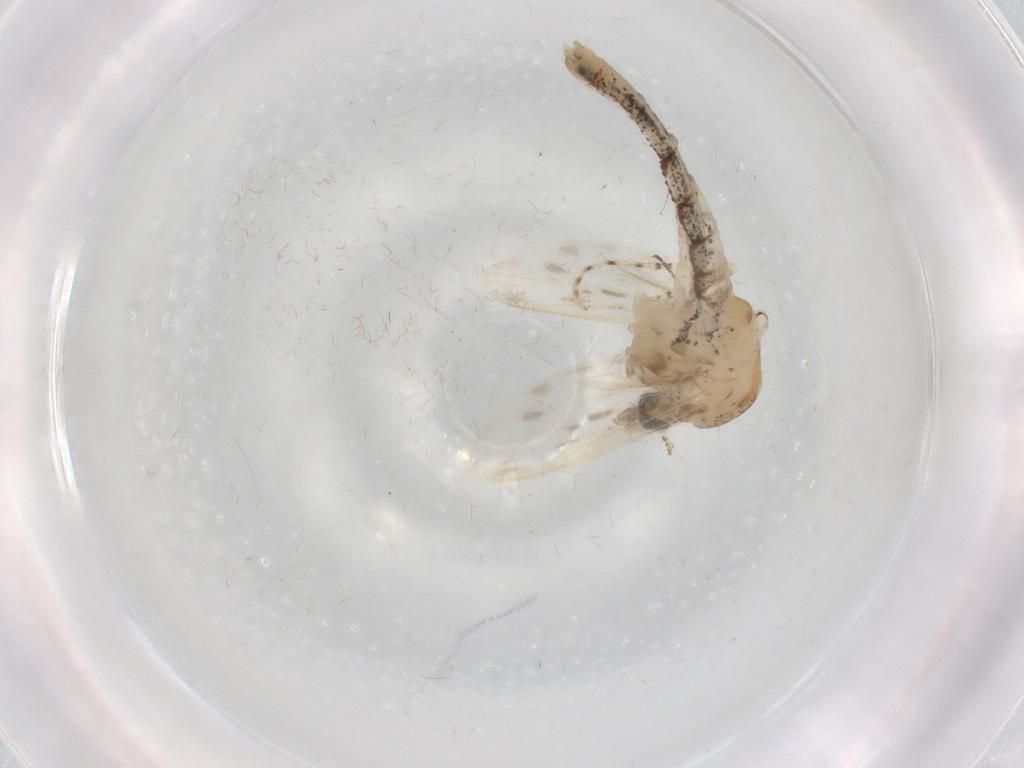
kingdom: Animalia
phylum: Arthropoda
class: Insecta
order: Diptera
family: Chaoboridae
